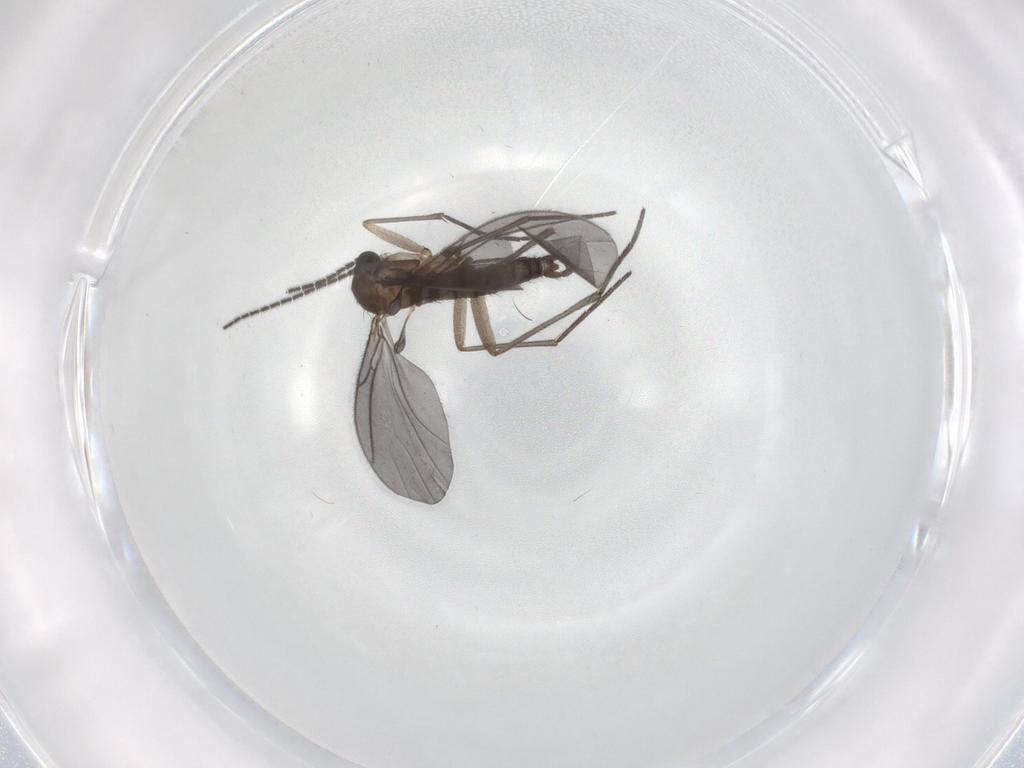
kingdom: Animalia
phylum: Arthropoda
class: Insecta
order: Diptera
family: Sciaridae
